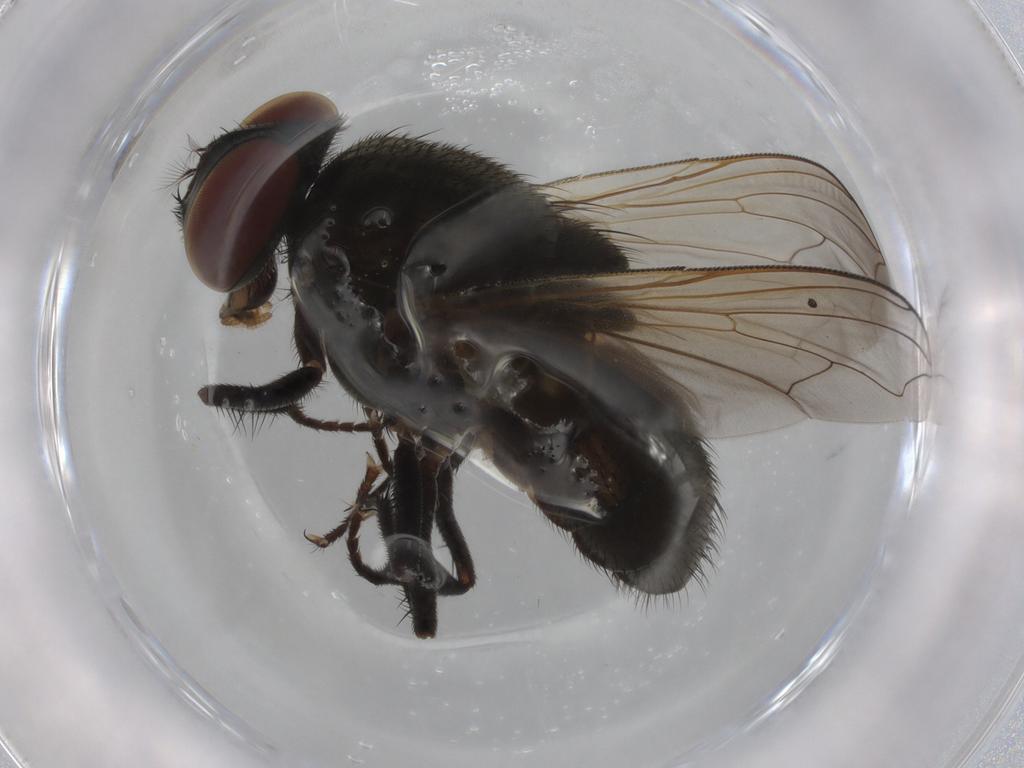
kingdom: Animalia
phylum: Arthropoda
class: Insecta
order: Diptera
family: Muscidae
